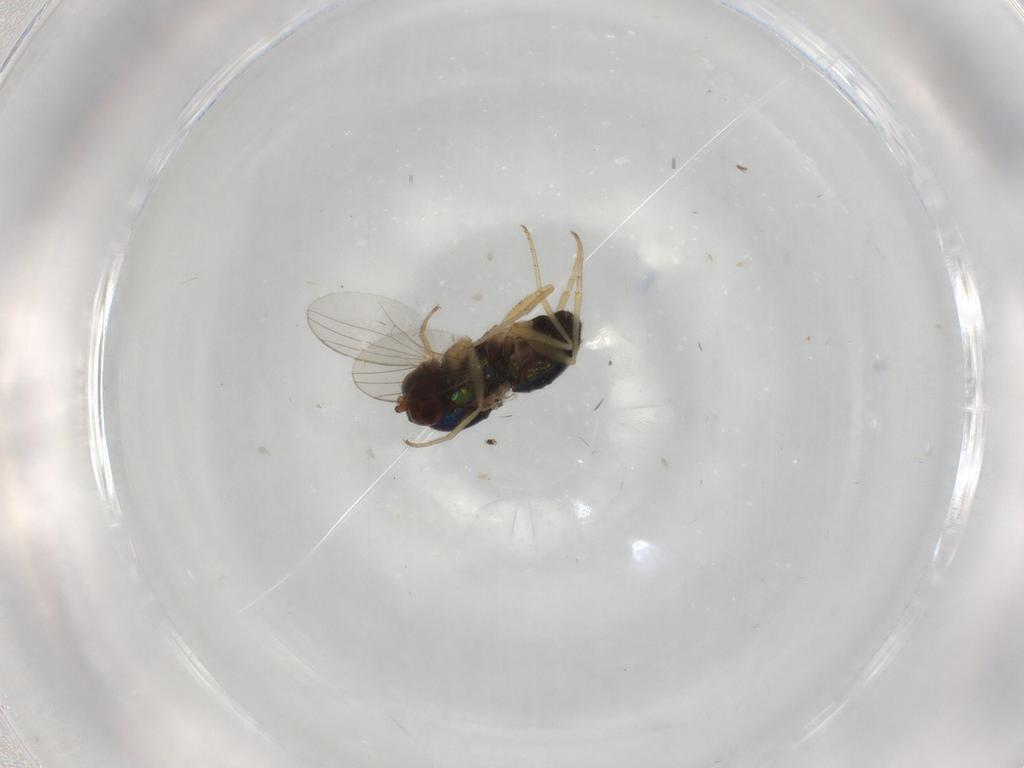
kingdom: Animalia
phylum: Arthropoda
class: Insecta
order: Diptera
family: Dolichopodidae
